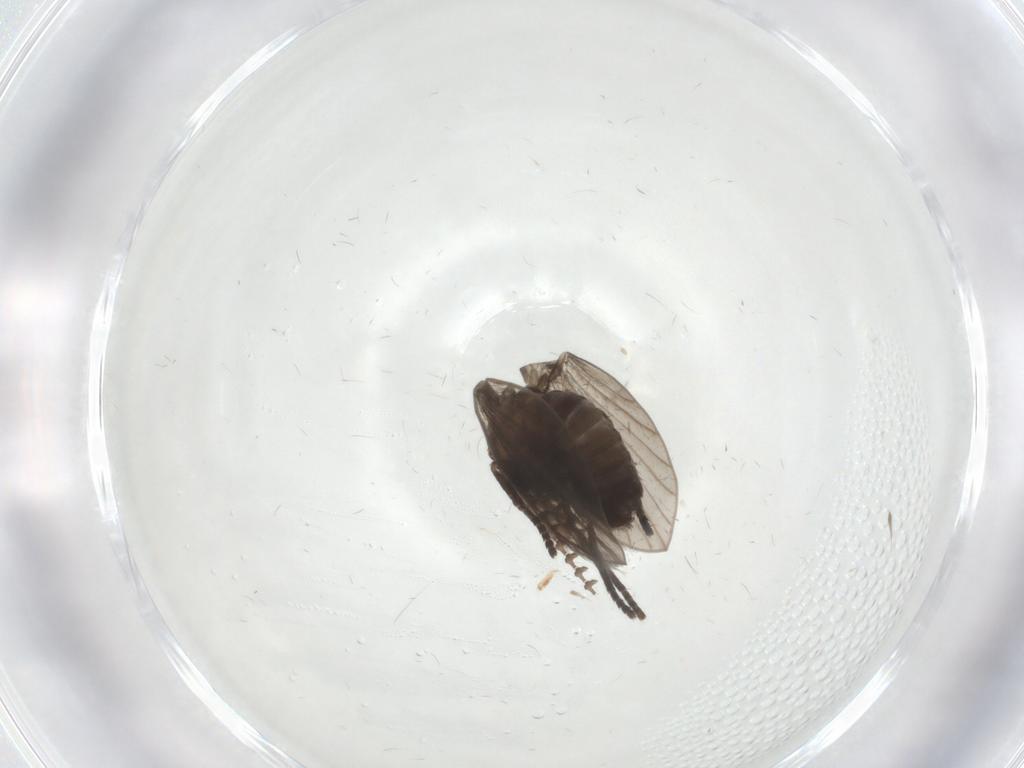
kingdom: Animalia
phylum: Arthropoda
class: Insecta
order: Diptera
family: Psychodidae
